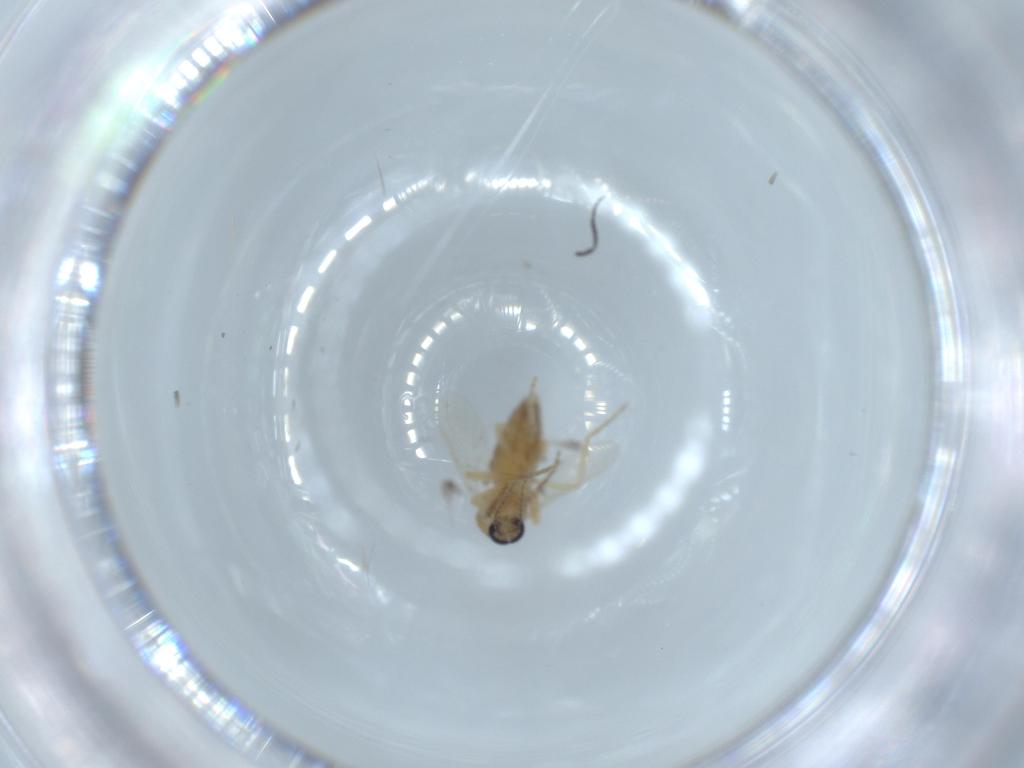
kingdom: Animalia
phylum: Arthropoda
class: Insecta
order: Diptera
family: Ceratopogonidae
